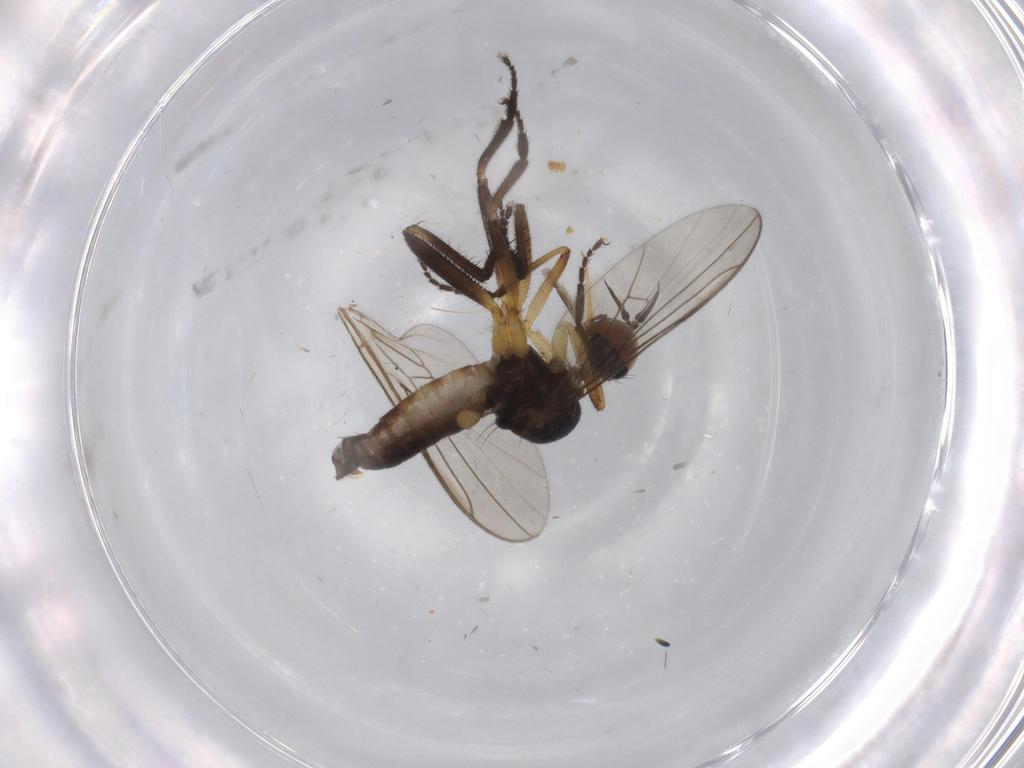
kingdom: Animalia
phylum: Arthropoda
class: Insecta
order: Diptera
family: Empididae
